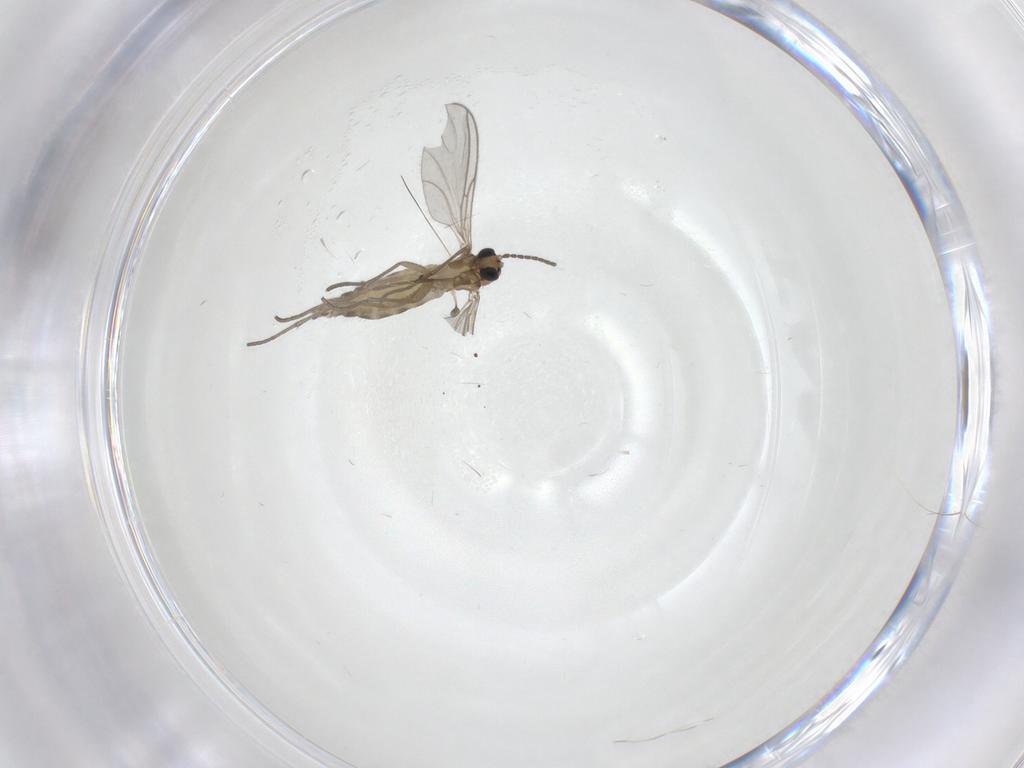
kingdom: Animalia
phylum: Arthropoda
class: Insecta
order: Diptera
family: Sciaridae
